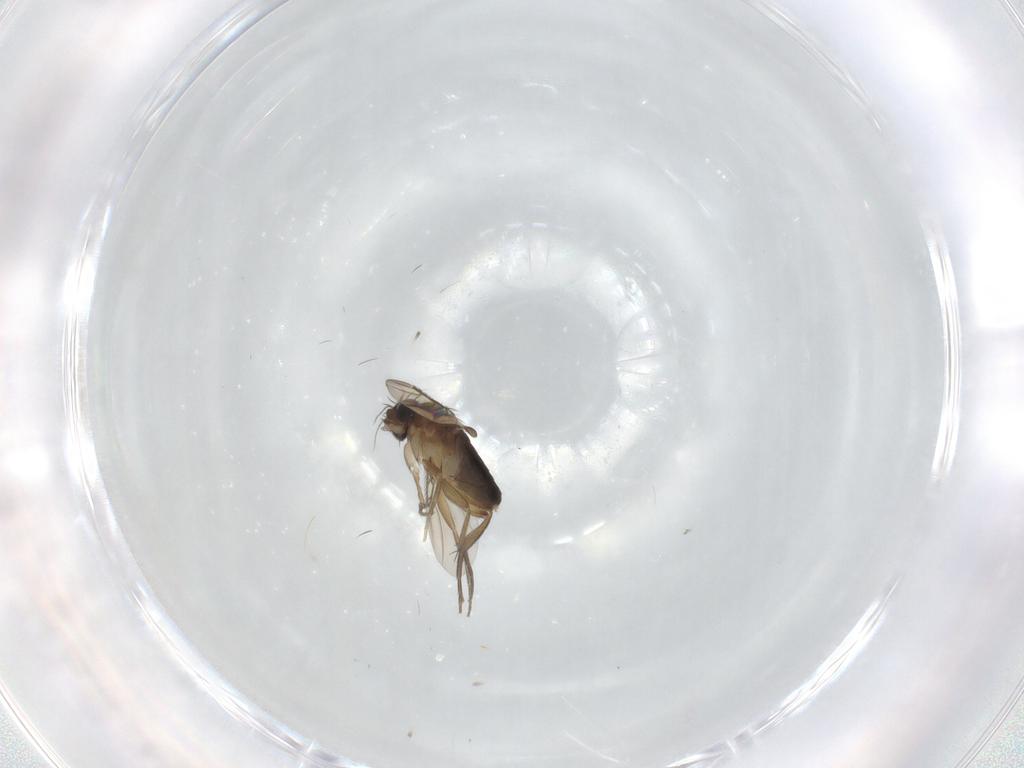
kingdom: Animalia
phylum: Arthropoda
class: Insecta
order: Diptera
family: Phoridae
